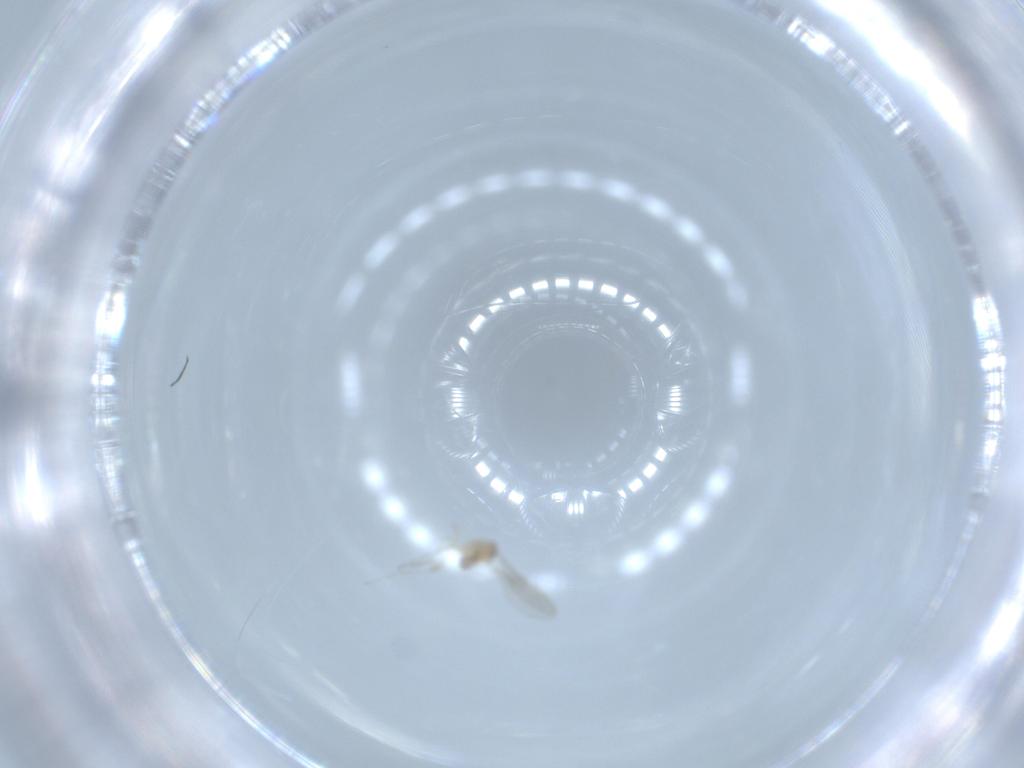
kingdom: Animalia
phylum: Arthropoda
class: Insecta
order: Diptera
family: Cecidomyiidae
